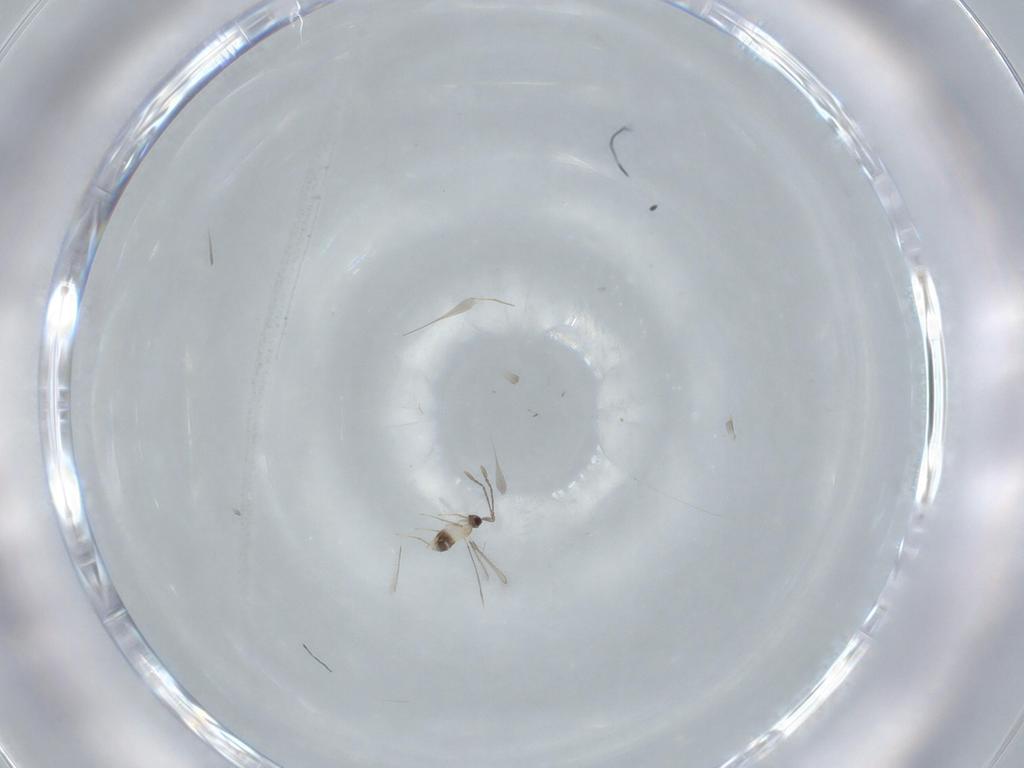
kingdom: Animalia
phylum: Arthropoda
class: Insecta
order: Hymenoptera
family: Mymaridae
